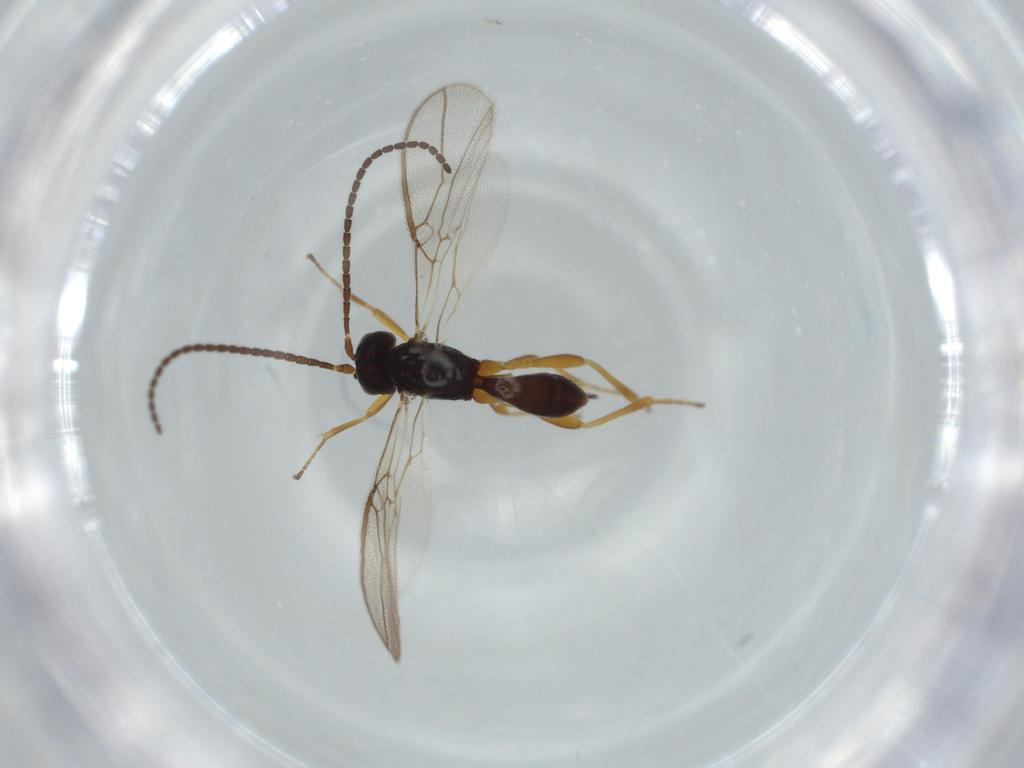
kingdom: Animalia
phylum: Arthropoda
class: Insecta
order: Hymenoptera
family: Braconidae
